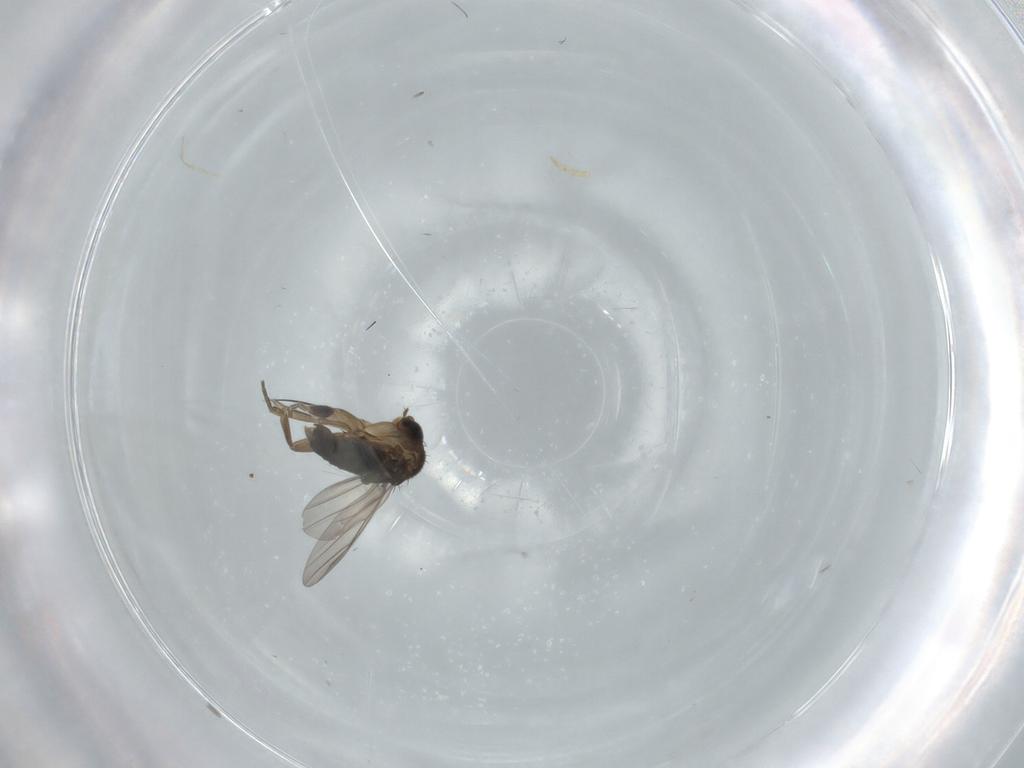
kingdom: Animalia
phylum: Arthropoda
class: Insecta
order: Diptera
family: Phoridae
